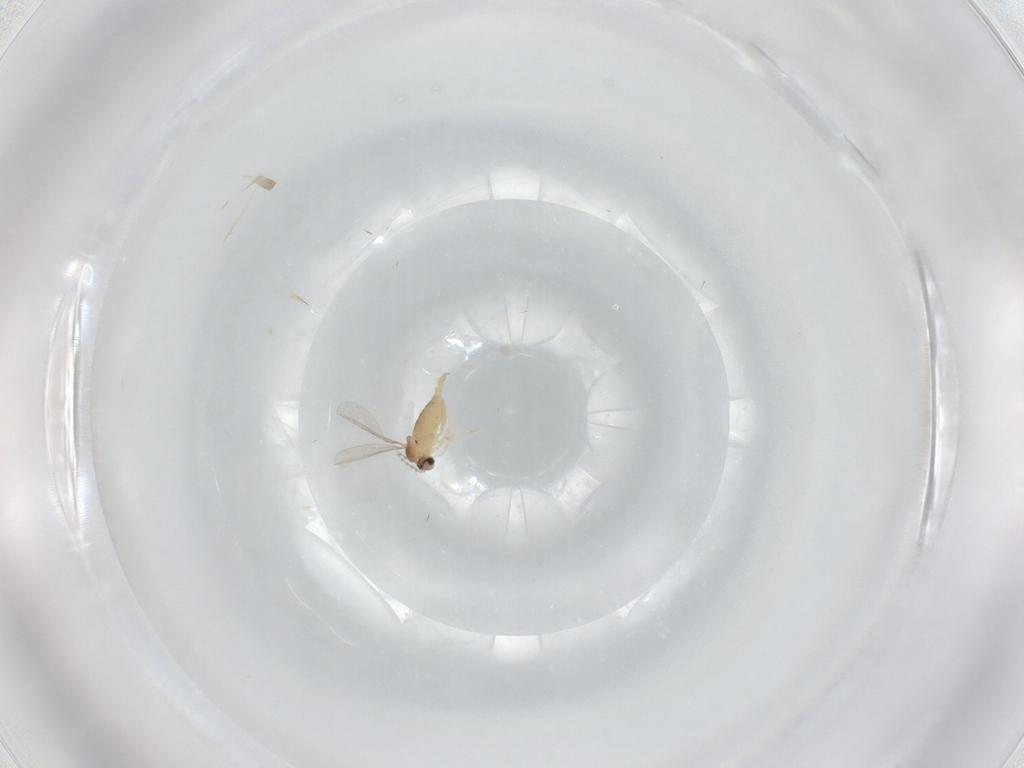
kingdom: Animalia
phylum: Arthropoda
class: Insecta
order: Diptera
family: Cecidomyiidae
